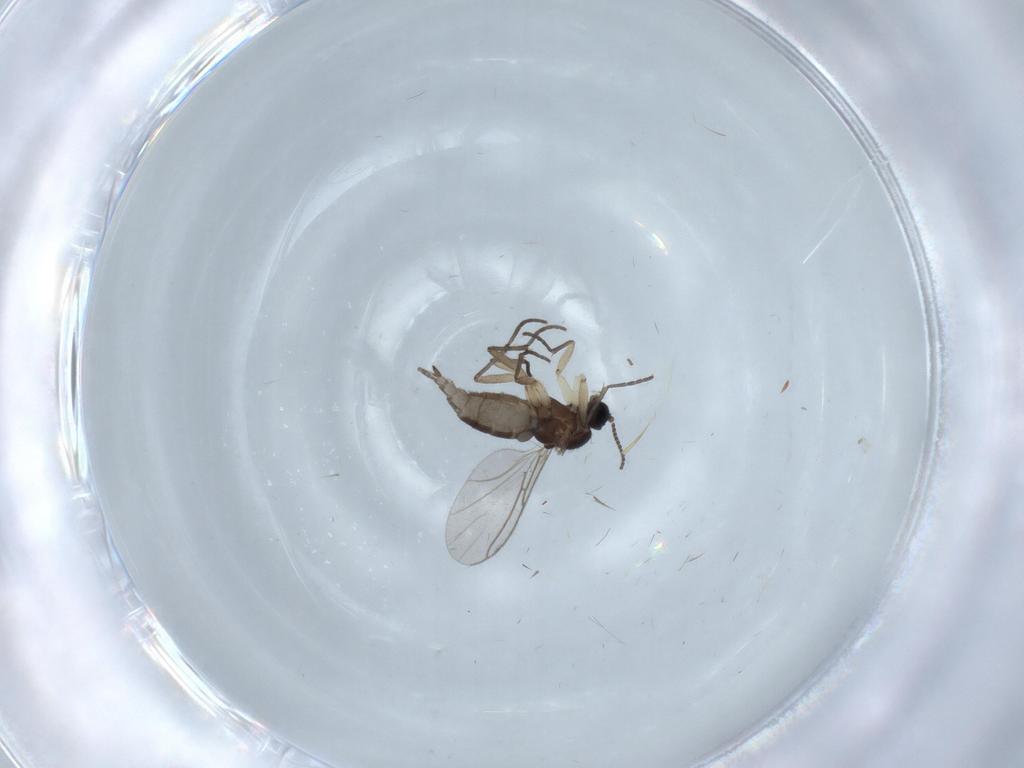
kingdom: Animalia
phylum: Arthropoda
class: Insecta
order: Diptera
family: Sciaridae
